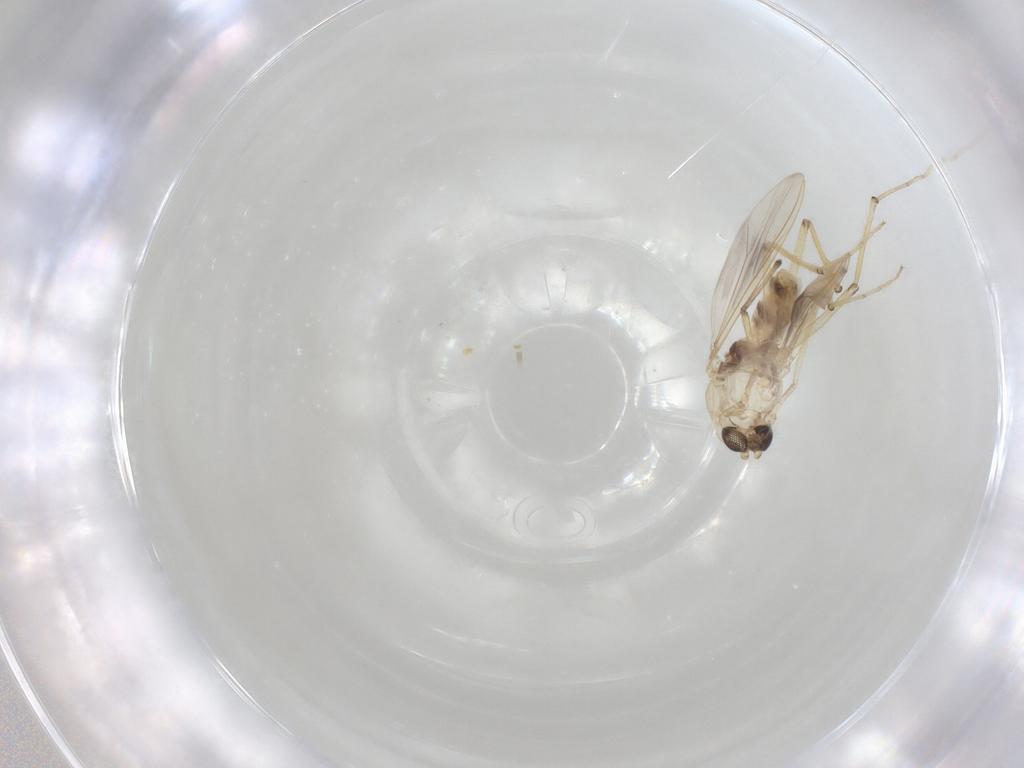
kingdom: Animalia
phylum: Arthropoda
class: Insecta
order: Diptera
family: Chironomidae
